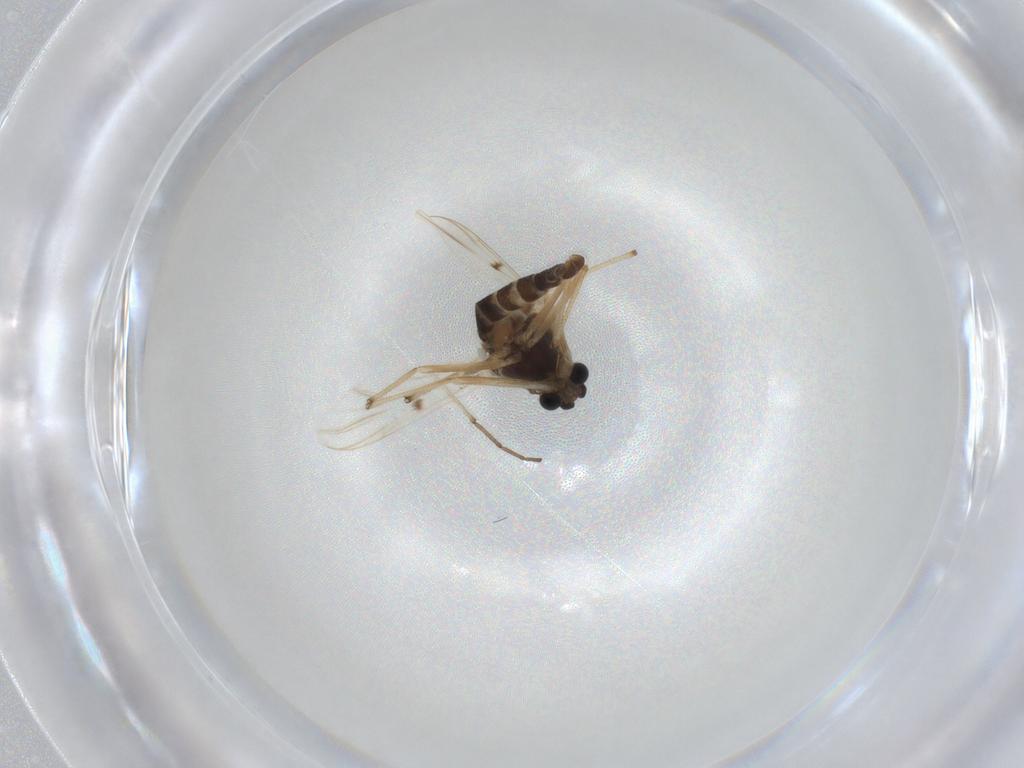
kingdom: Animalia
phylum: Arthropoda
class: Insecta
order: Diptera
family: Chironomidae
